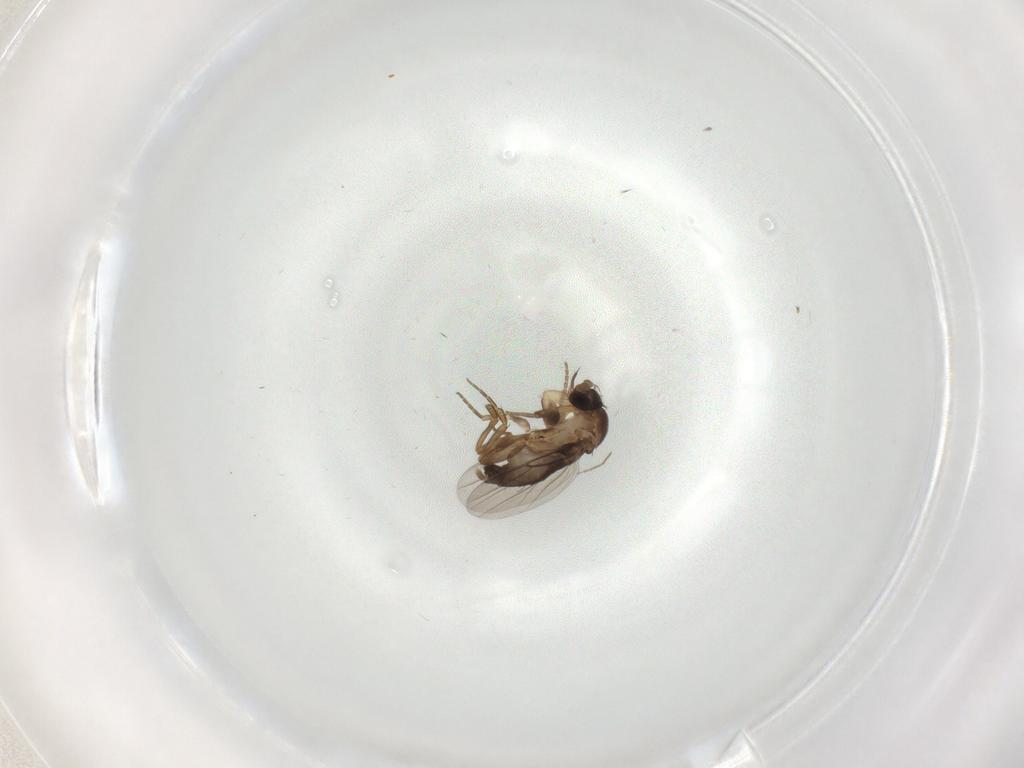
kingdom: Animalia
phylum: Arthropoda
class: Insecta
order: Diptera
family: Phoridae
